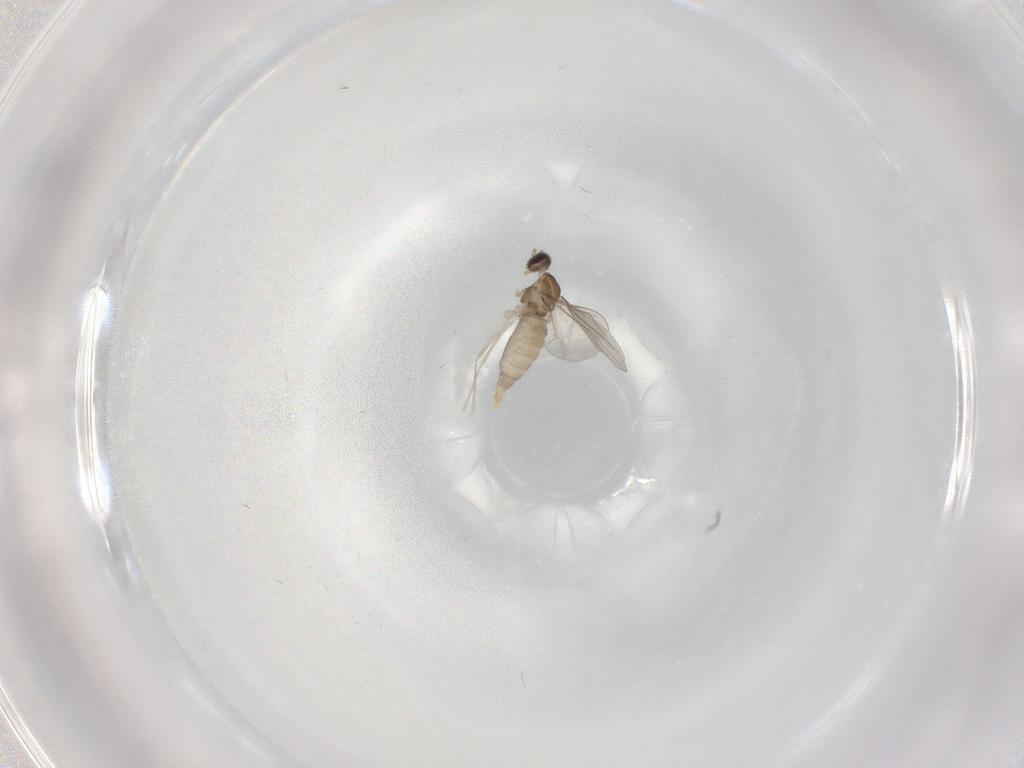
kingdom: Animalia
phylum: Arthropoda
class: Insecta
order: Diptera
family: Cecidomyiidae
